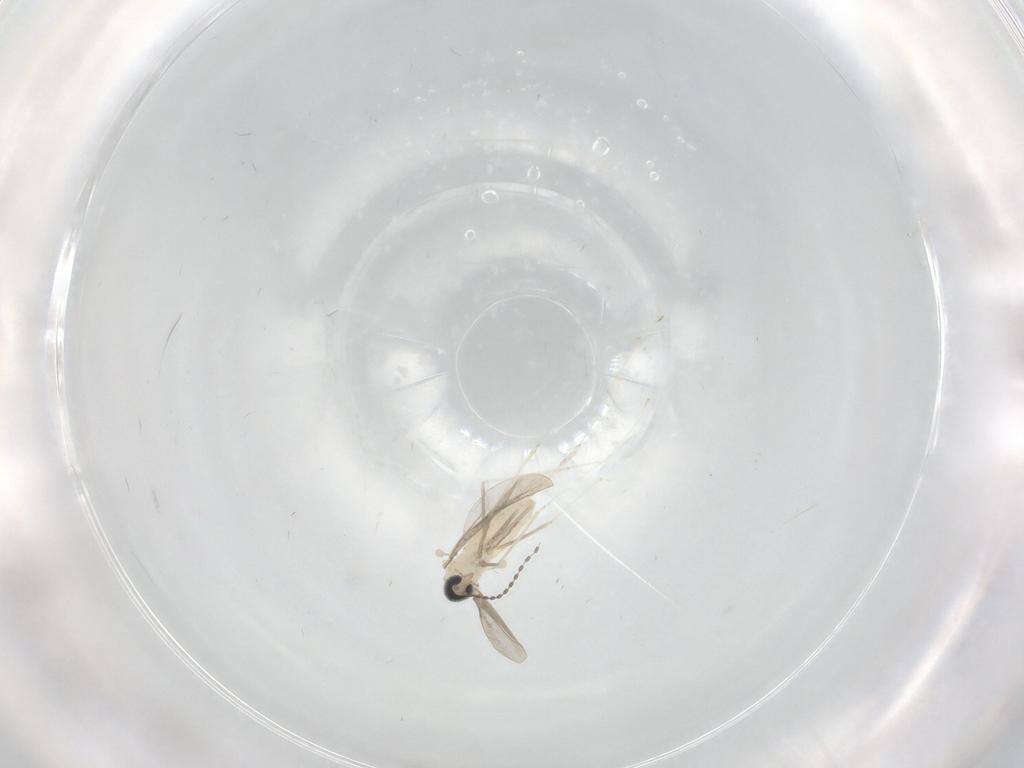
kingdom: Animalia
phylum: Arthropoda
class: Insecta
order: Diptera
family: Cecidomyiidae
